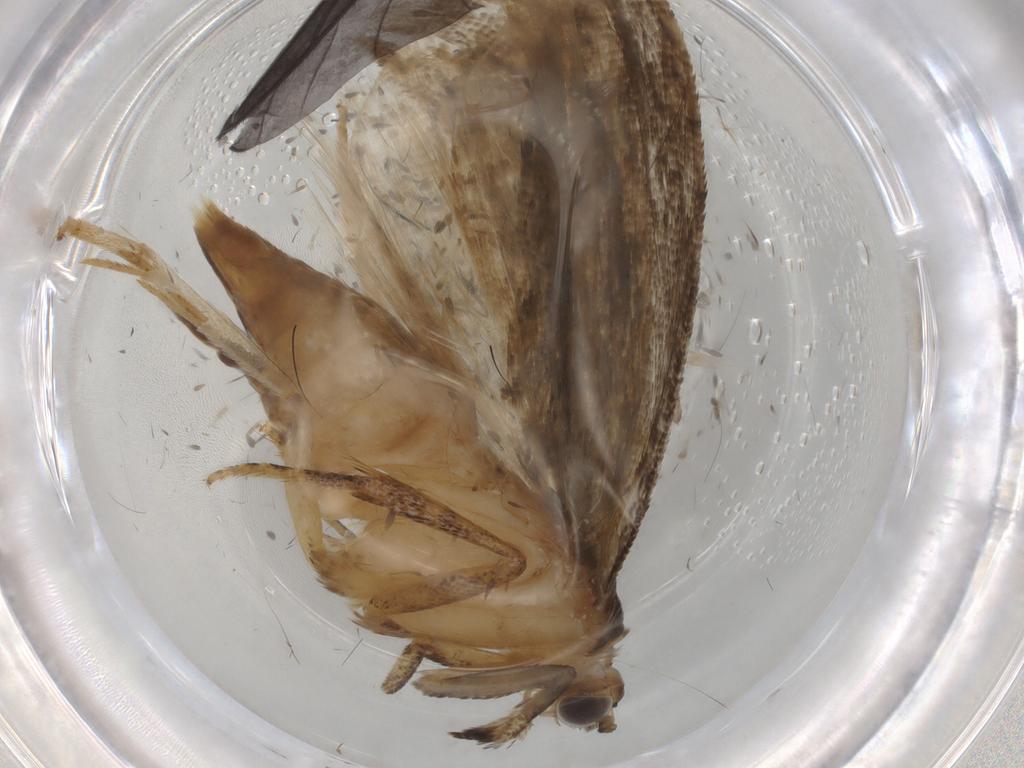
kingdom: Animalia
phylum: Arthropoda
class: Insecta
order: Lepidoptera
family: Tortricidae
